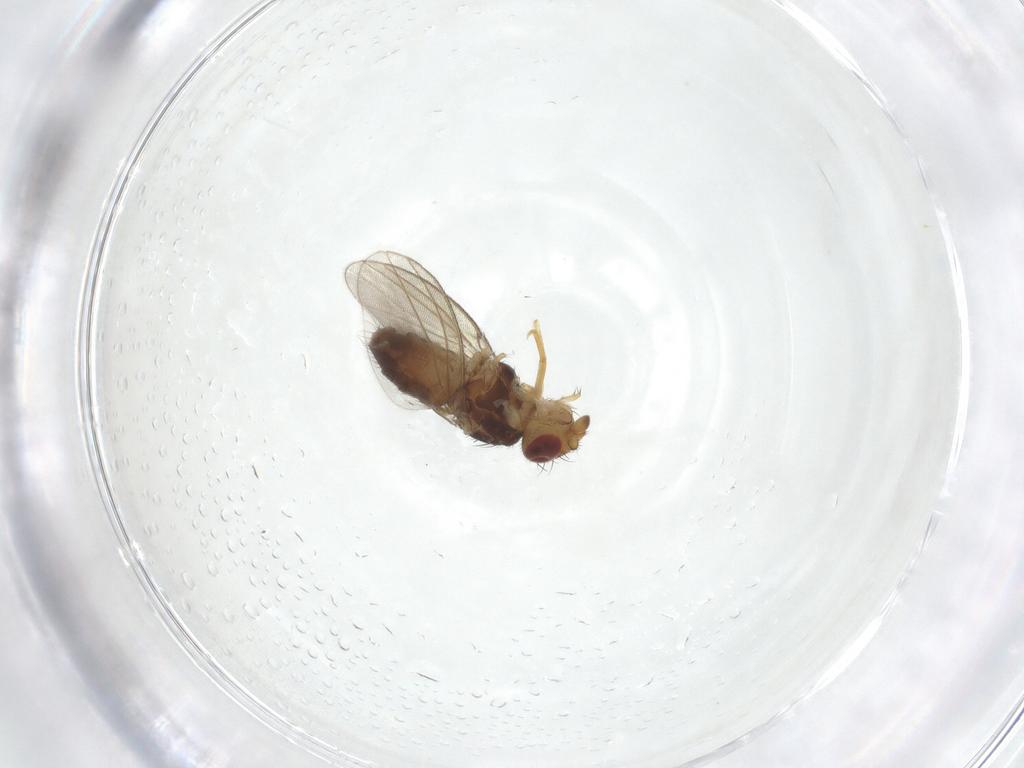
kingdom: Animalia
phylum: Arthropoda
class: Insecta
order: Diptera
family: Milichiidae
